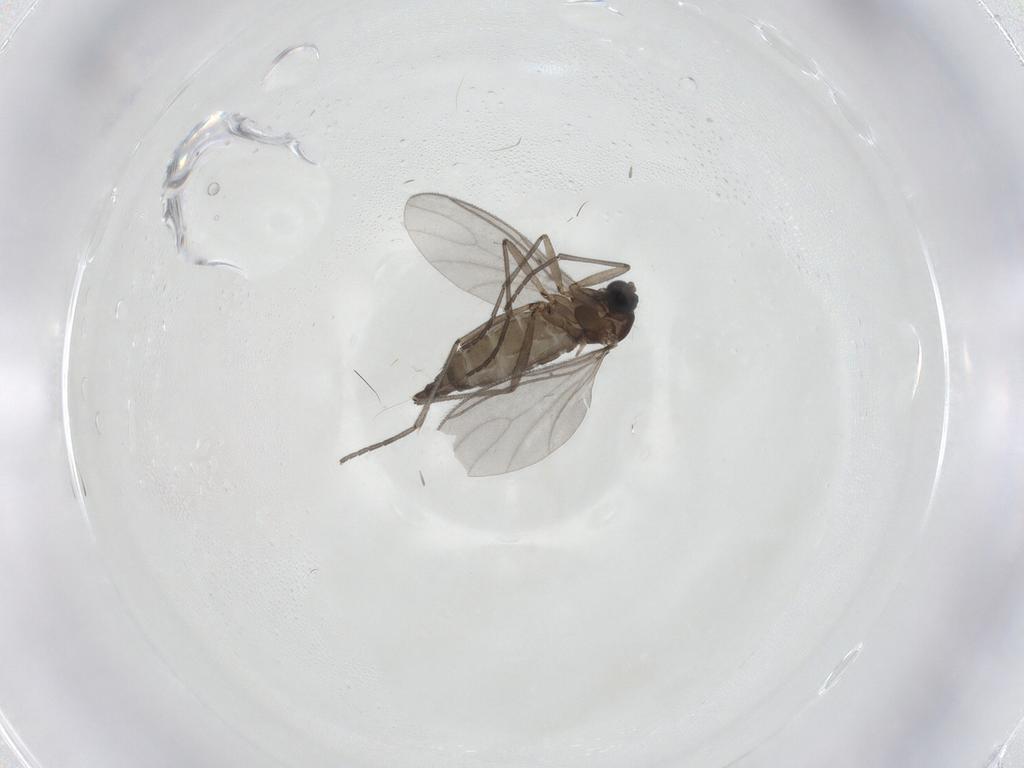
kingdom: Animalia
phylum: Arthropoda
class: Insecta
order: Diptera
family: Sciaridae
